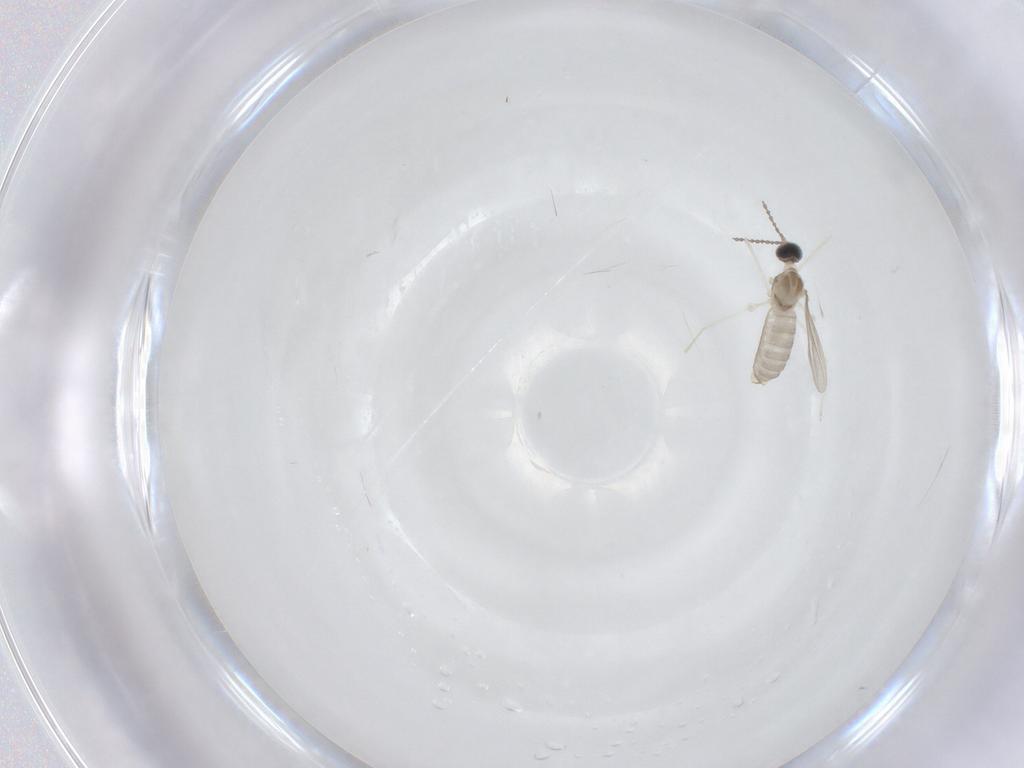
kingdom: Animalia
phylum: Arthropoda
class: Insecta
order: Diptera
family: Cecidomyiidae
